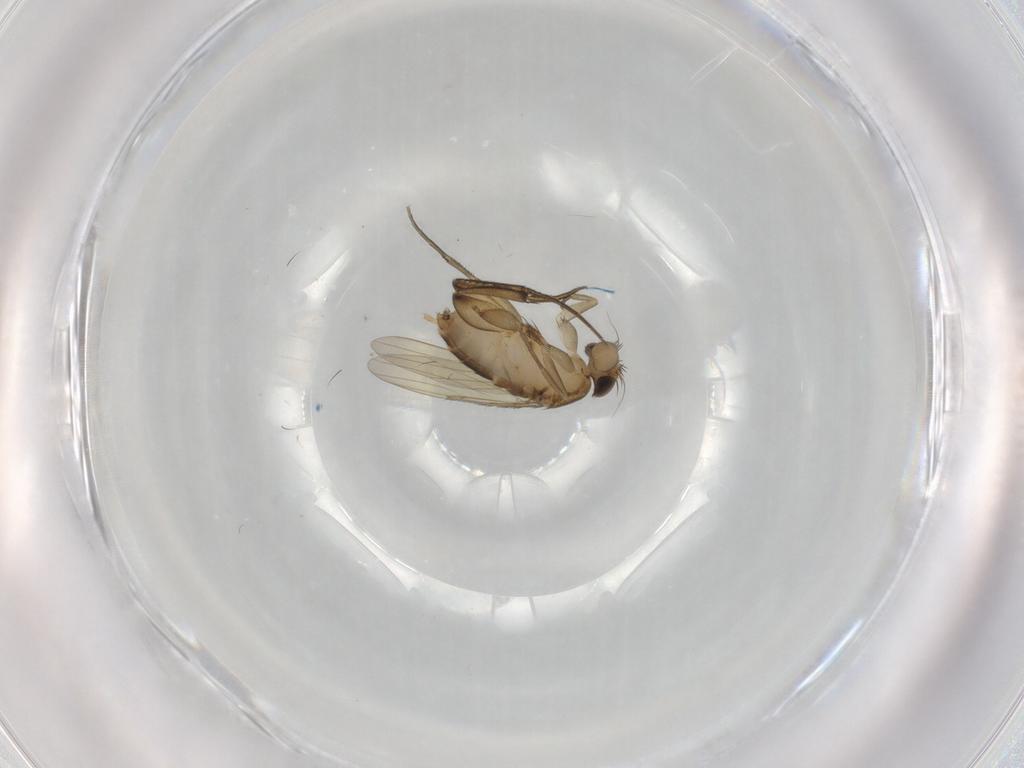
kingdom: Animalia
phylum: Arthropoda
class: Insecta
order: Diptera
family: Phoridae
